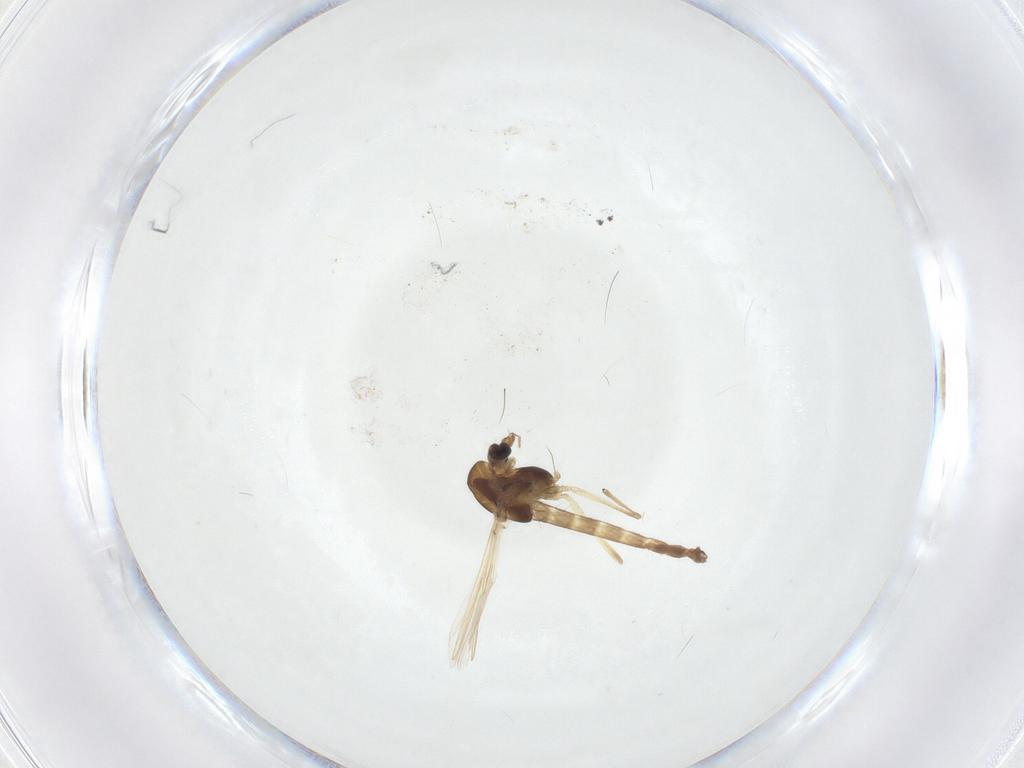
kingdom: Animalia
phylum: Arthropoda
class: Insecta
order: Diptera
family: Chironomidae
